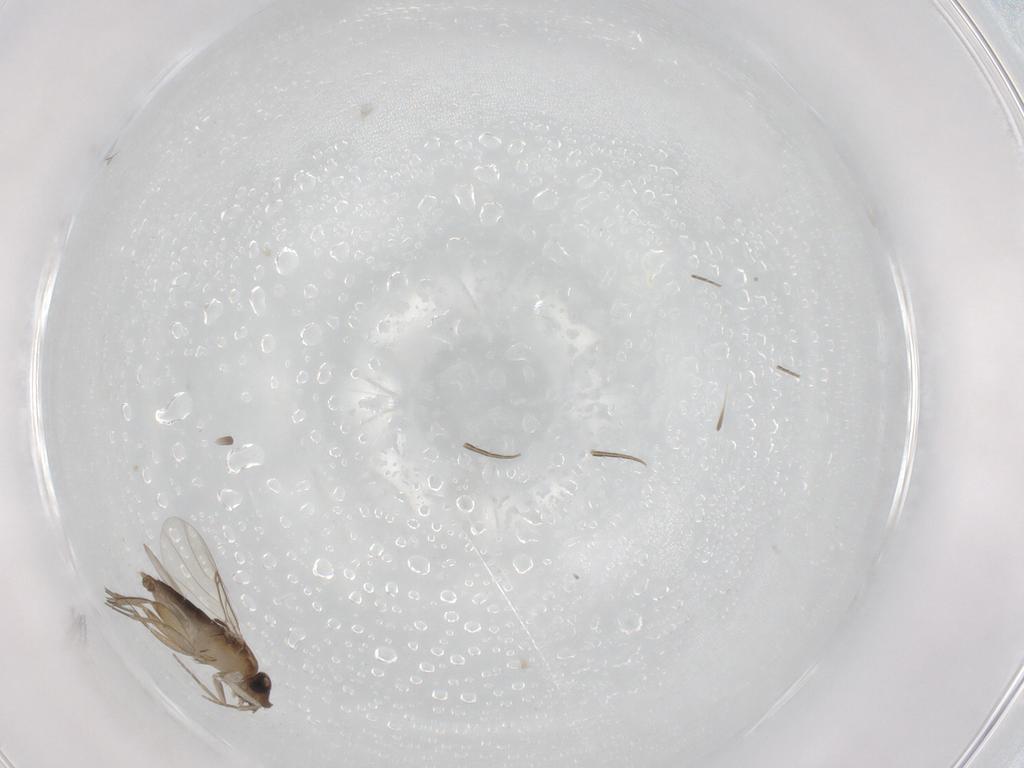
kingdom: Animalia
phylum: Arthropoda
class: Insecta
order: Diptera
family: Phoridae
